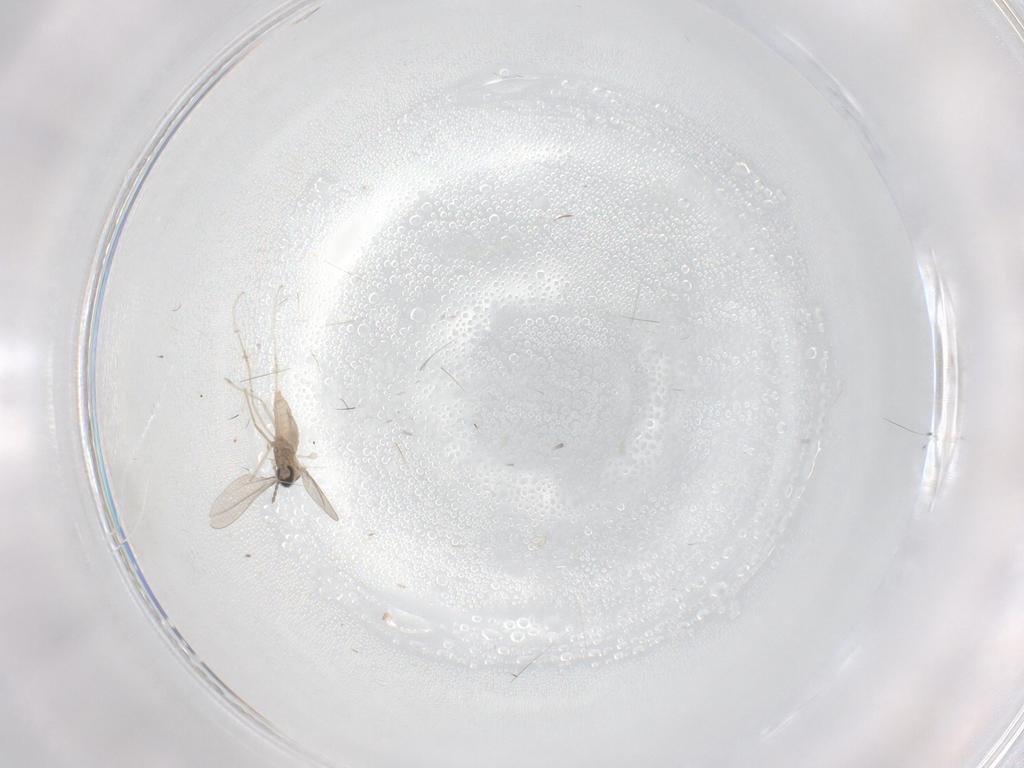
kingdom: Animalia
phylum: Arthropoda
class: Insecta
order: Diptera
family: Cecidomyiidae
